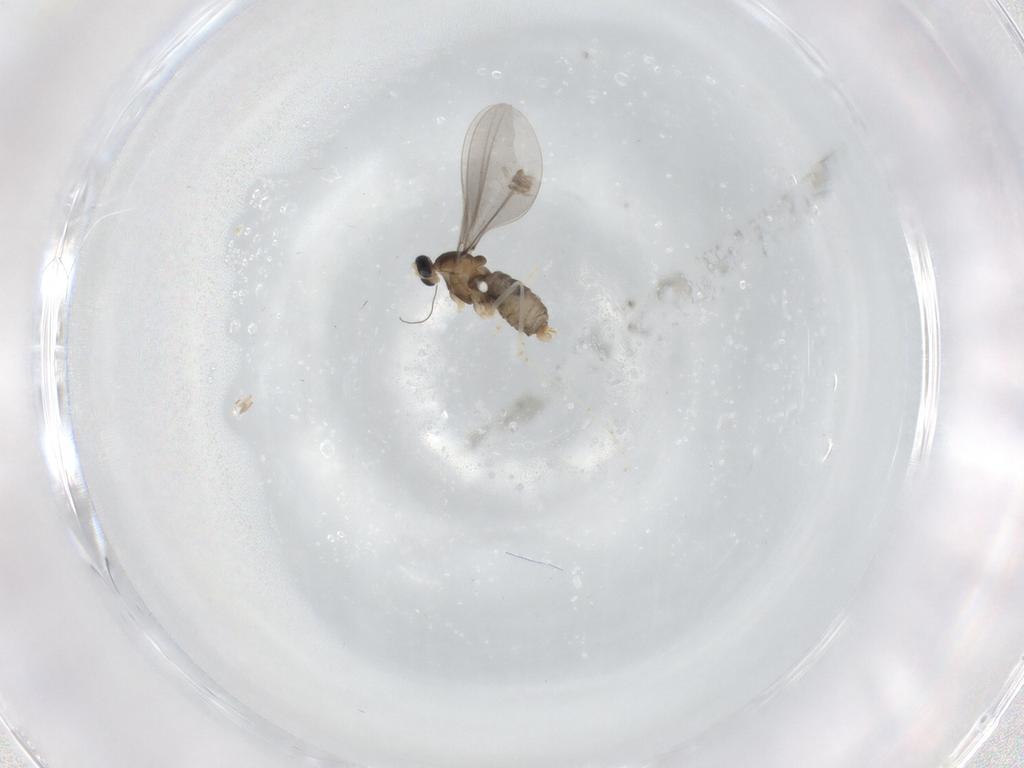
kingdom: Animalia
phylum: Arthropoda
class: Insecta
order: Diptera
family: Cecidomyiidae
